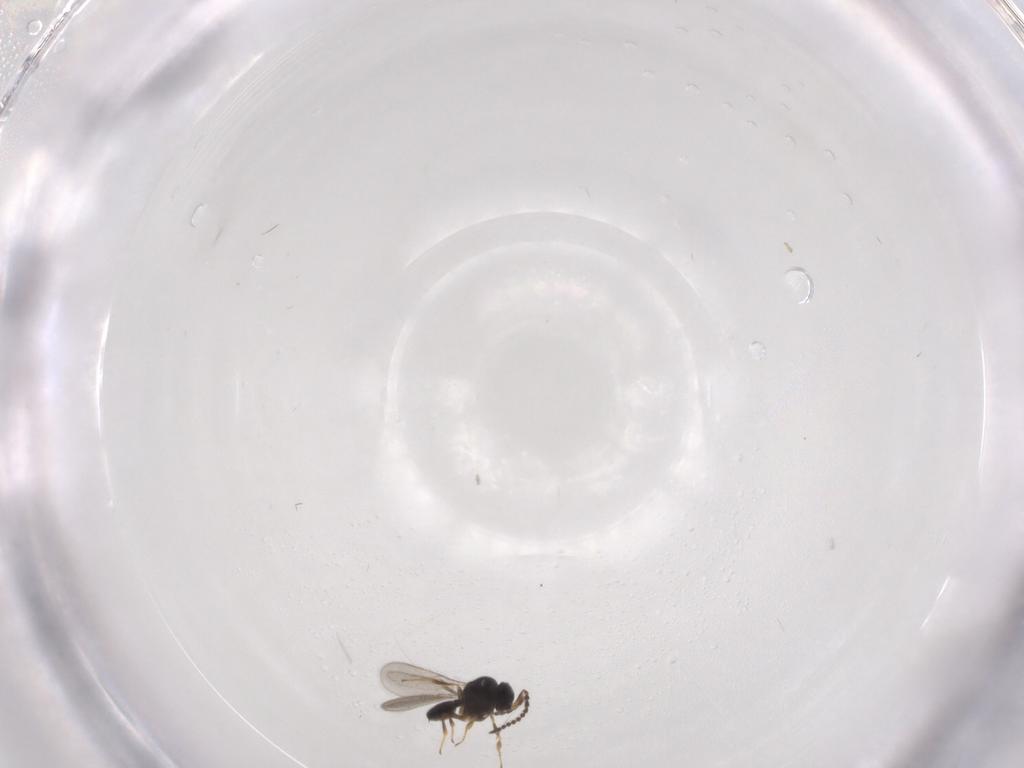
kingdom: Animalia
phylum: Arthropoda
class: Insecta
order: Hymenoptera
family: Scelionidae
